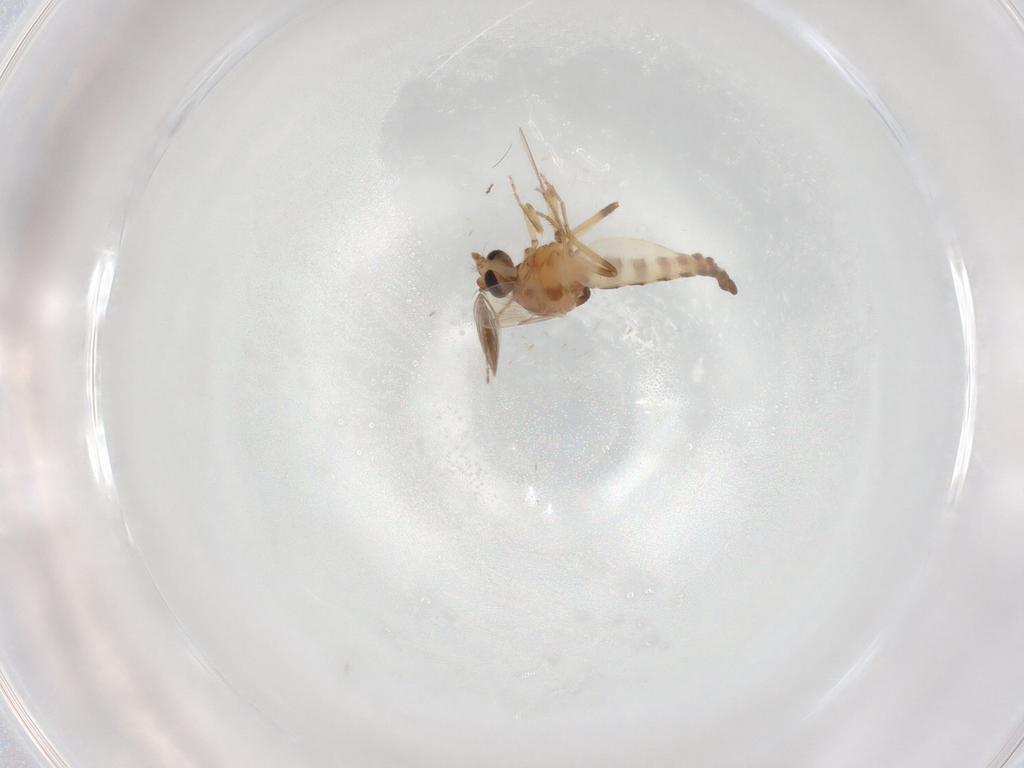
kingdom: Animalia
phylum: Arthropoda
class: Insecta
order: Diptera
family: Ceratopogonidae
